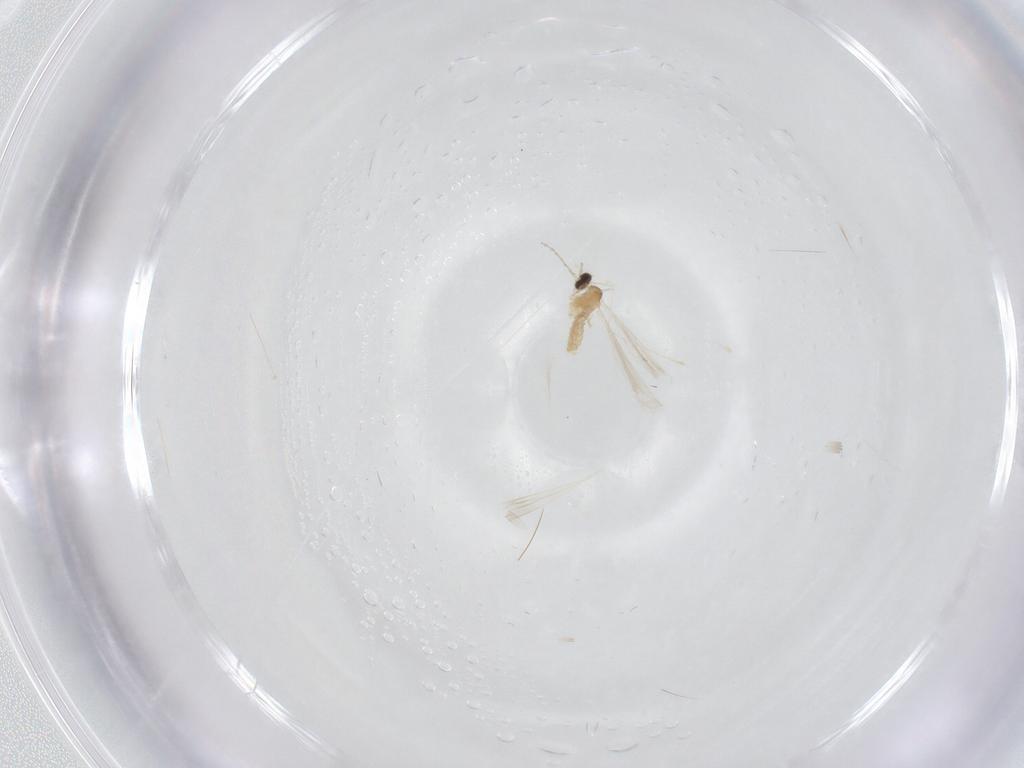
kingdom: Animalia
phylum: Arthropoda
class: Insecta
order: Diptera
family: Cecidomyiidae
